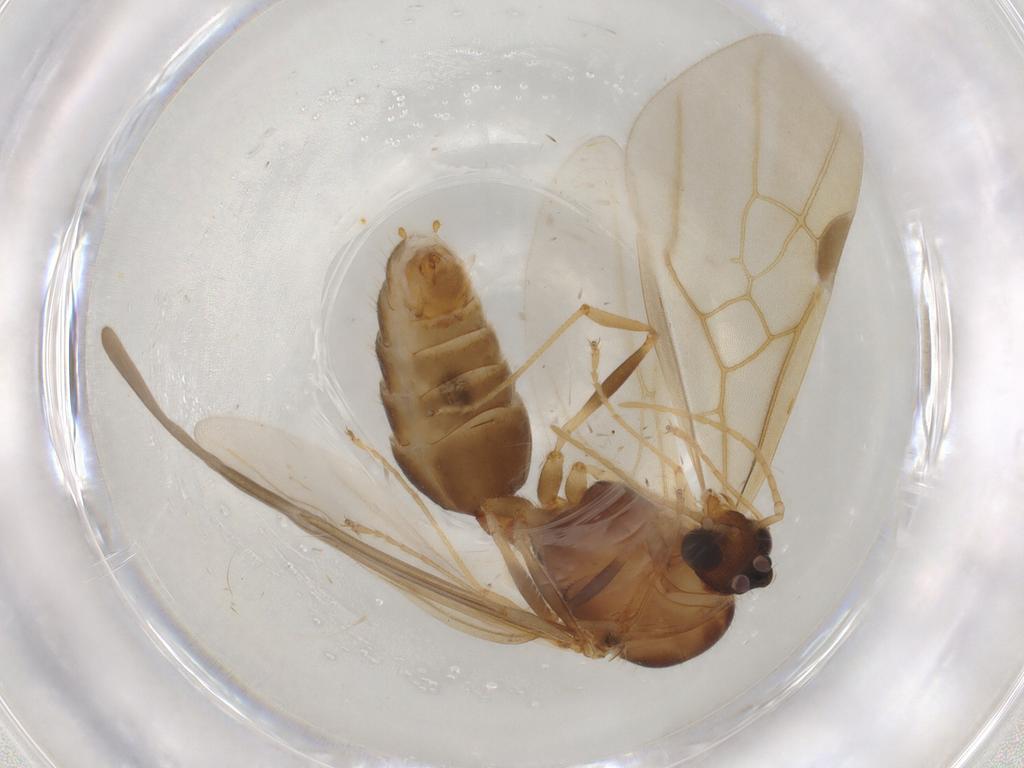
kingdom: Animalia
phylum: Arthropoda
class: Insecta
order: Hymenoptera
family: Formicidae
